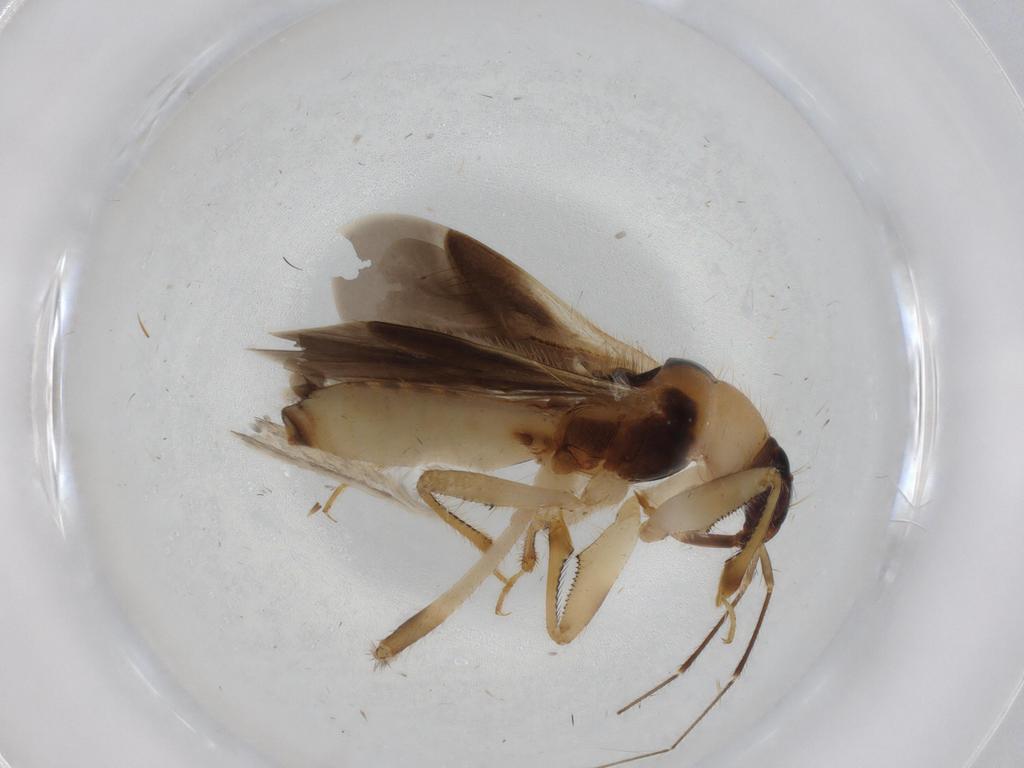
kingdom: Animalia
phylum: Arthropoda
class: Insecta
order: Hemiptera
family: Nabidae
